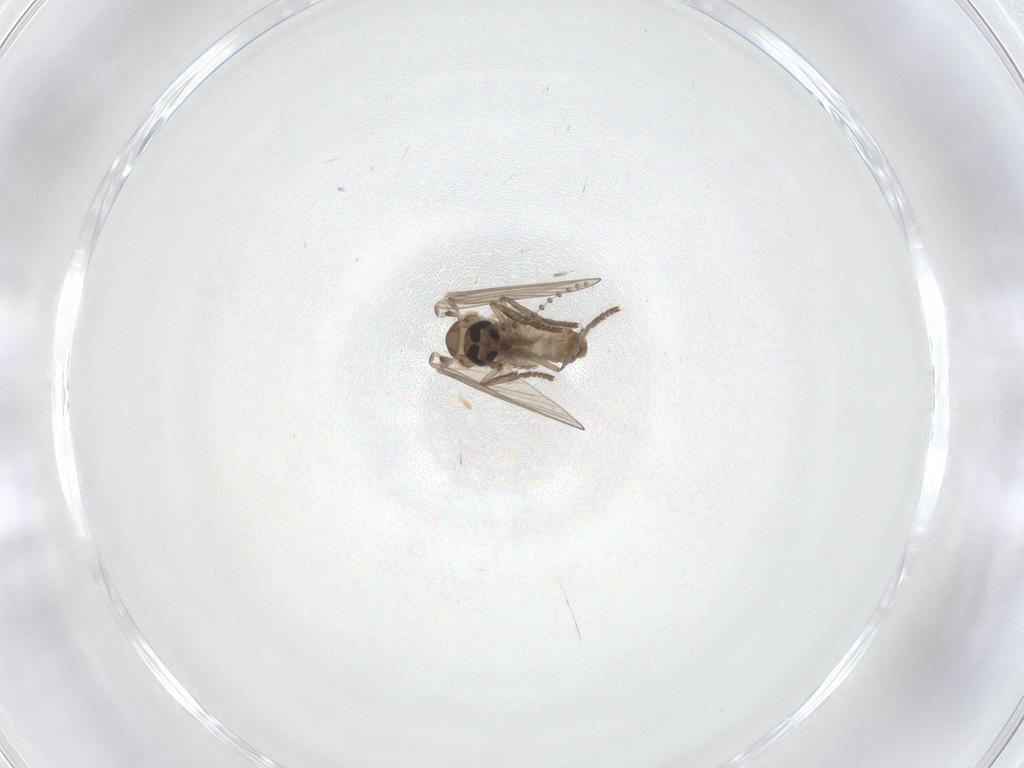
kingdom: Animalia
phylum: Arthropoda
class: Insecta
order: Diptera
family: Psychodidae
